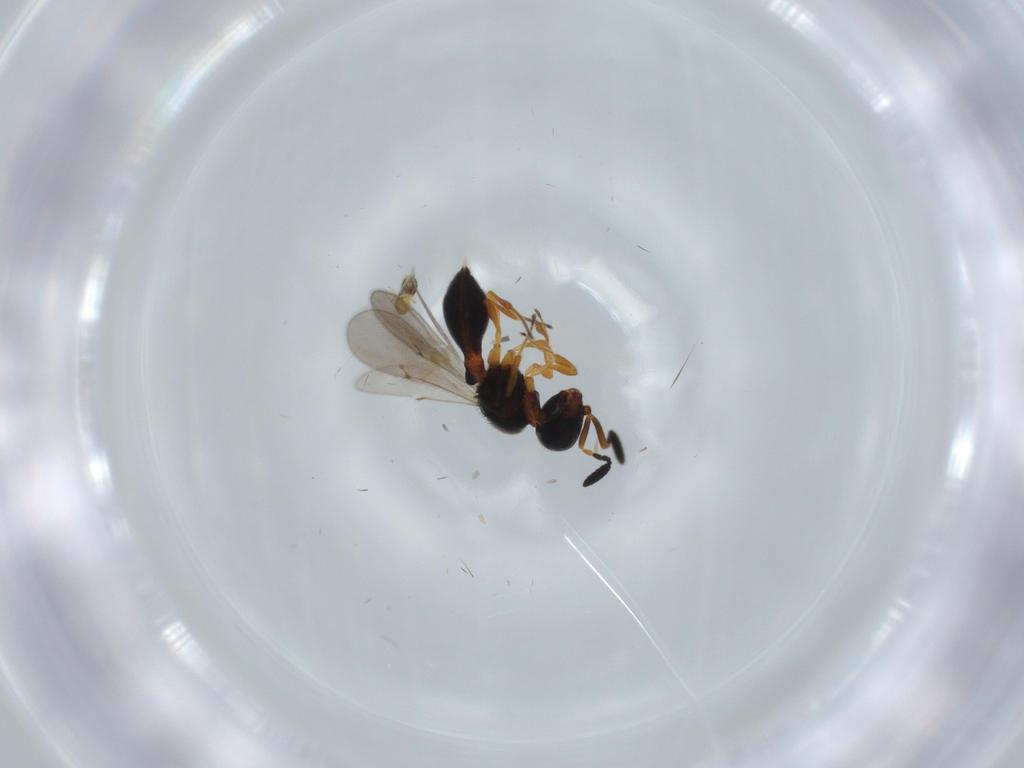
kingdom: Animalia
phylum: Arthropoda
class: Insecta
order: Hymenoptera
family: Trichogrammatidae
